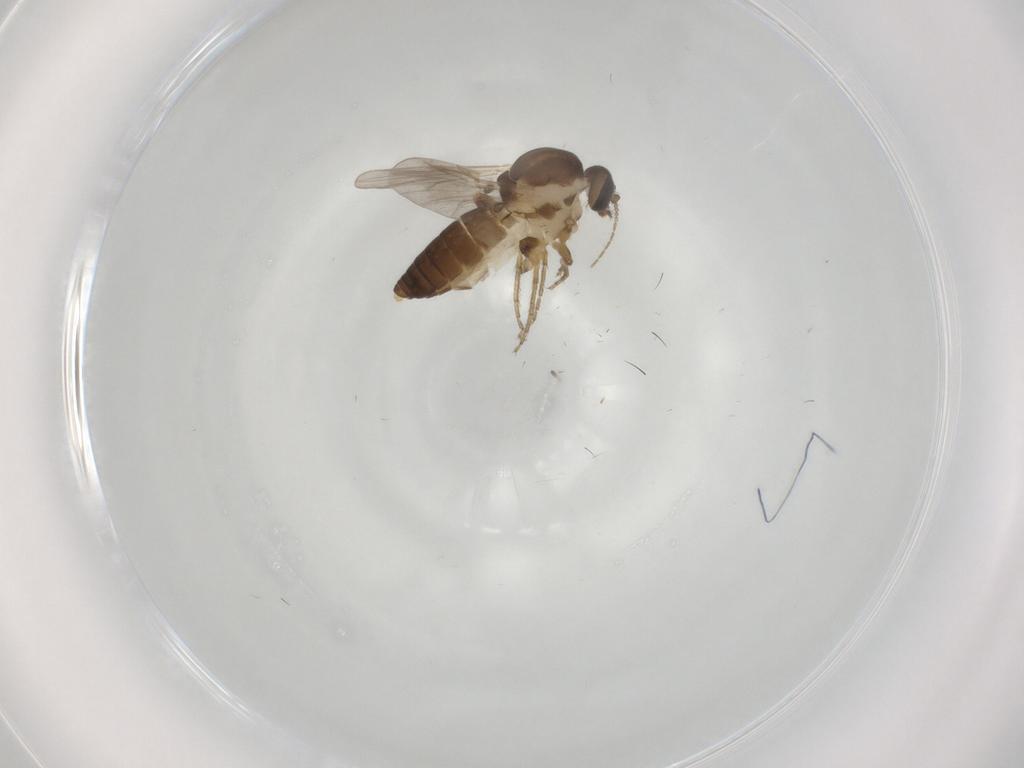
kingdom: Animalia
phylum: Arthropoda
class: Insecta
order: Diptera
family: Ceratopogonidae
